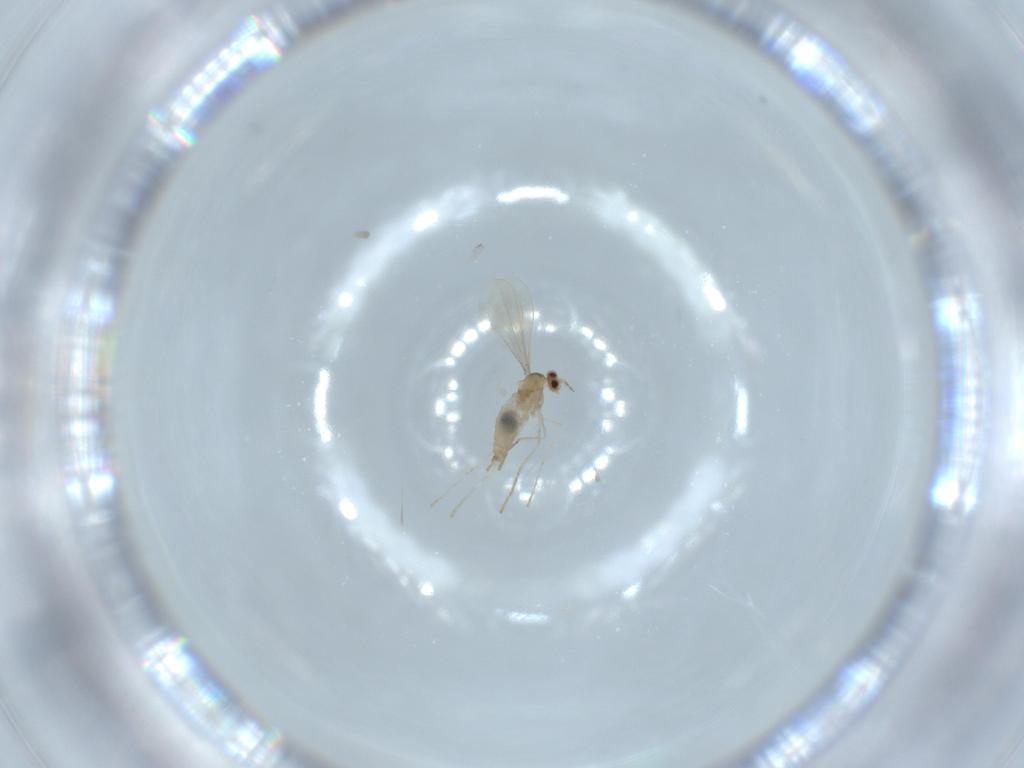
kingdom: Animalia
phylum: Arthropoda
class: Insecta
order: Diptera
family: Cecidomyiidae
